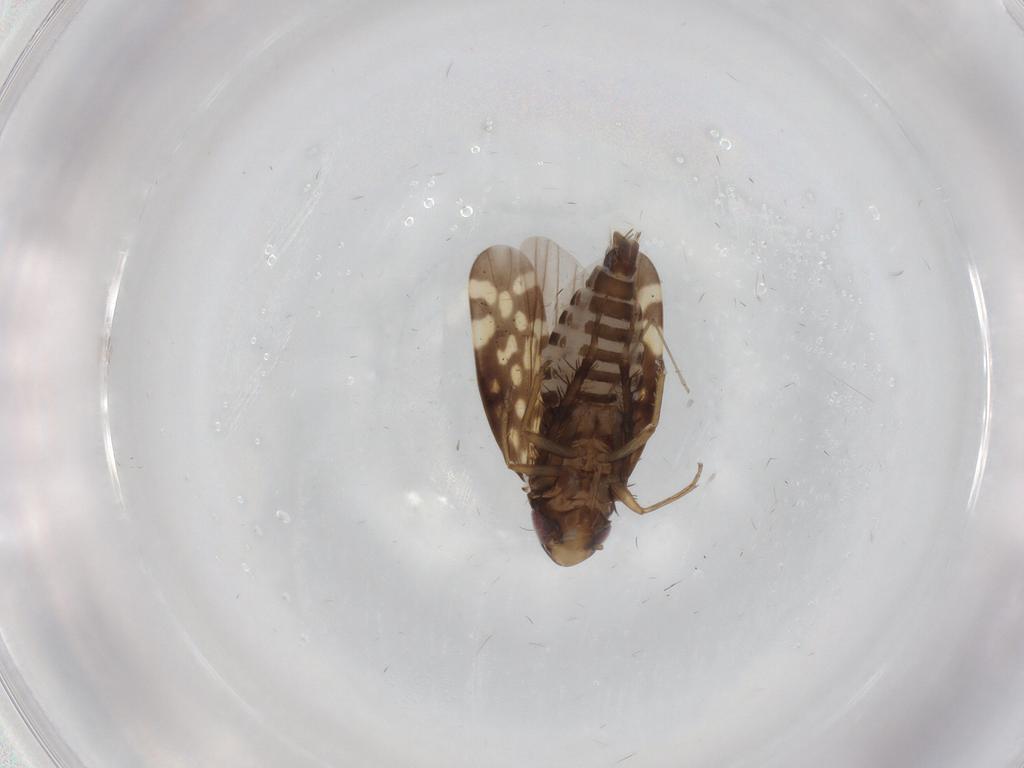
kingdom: Animalia
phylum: Arthropoda
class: Insecta
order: Hemiptera
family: Cicadellidae
